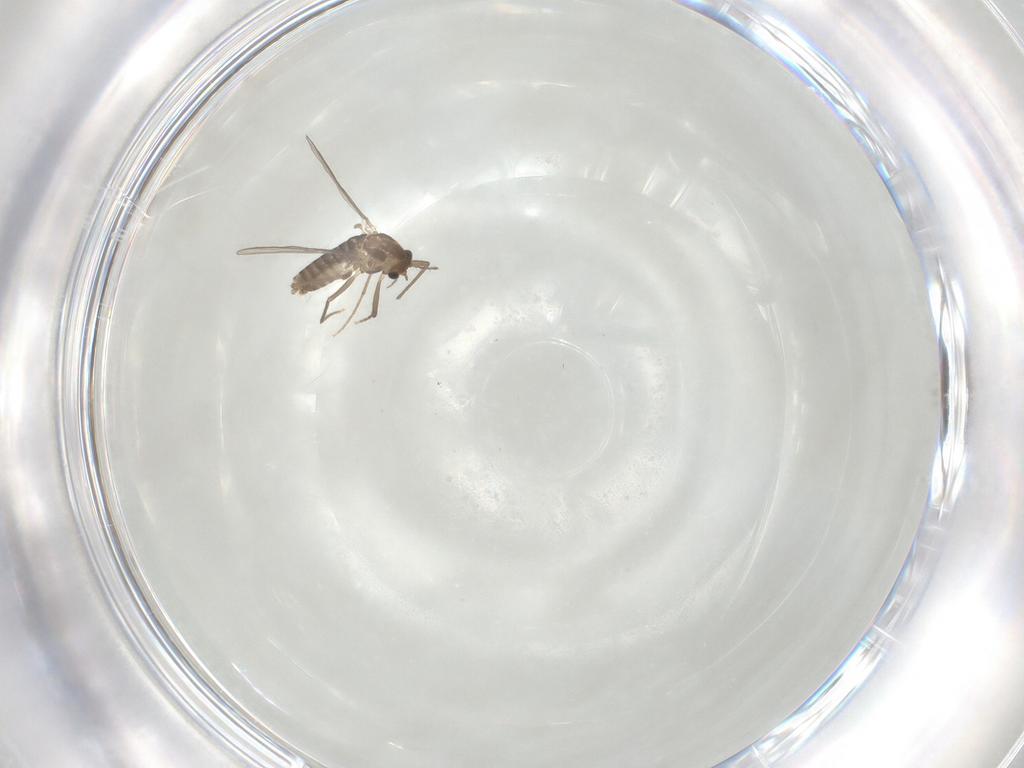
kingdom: Animalia
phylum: Arthropoda
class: Insecta
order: Diptera
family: Chironomidae
